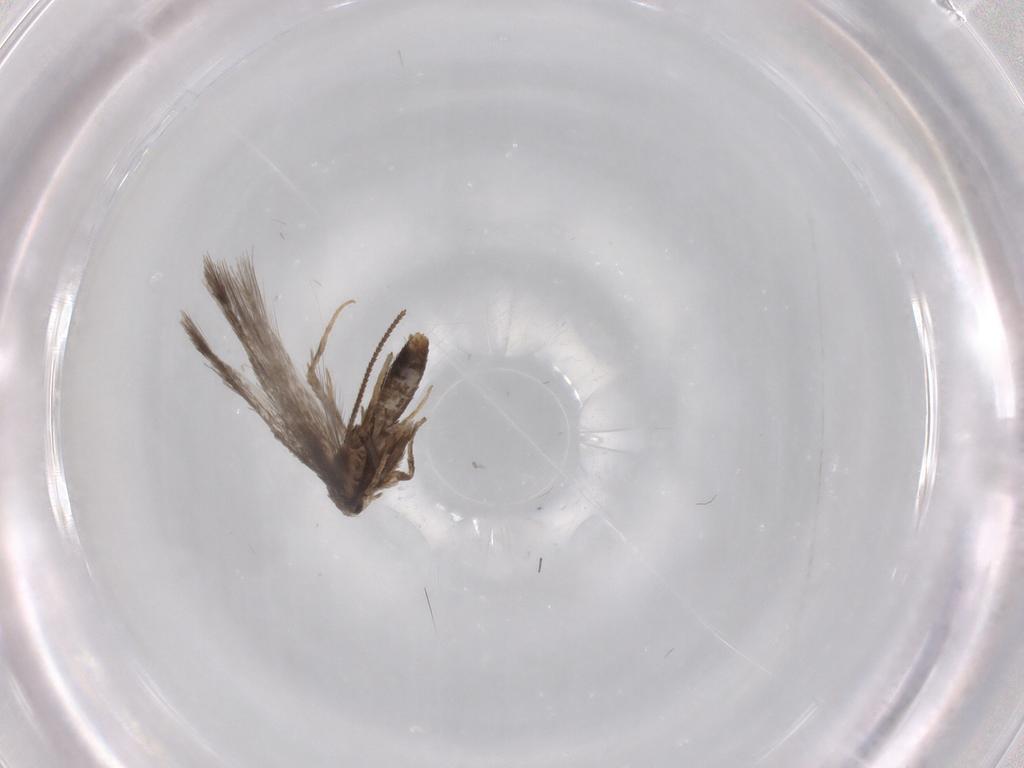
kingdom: Animalia
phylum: Arthropoda
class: Insecta
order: Lepidoptera
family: Nepticulidae
